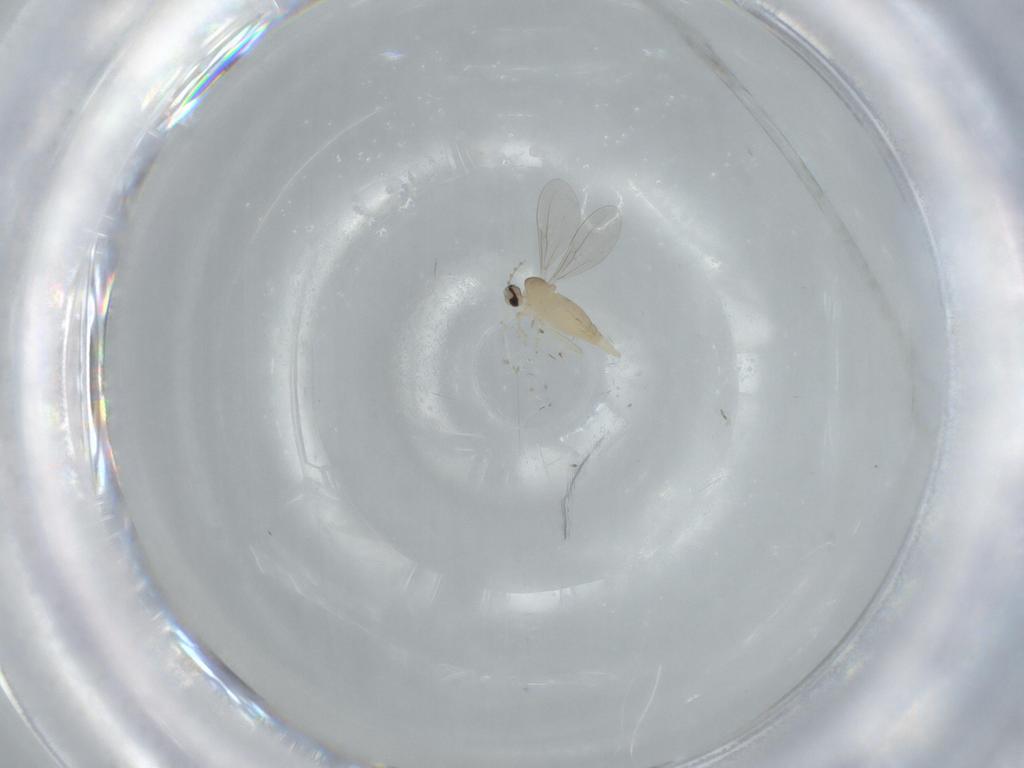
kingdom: Animalia
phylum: Arthropoda
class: Insecta
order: Diptera
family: Cecidomyiidae
